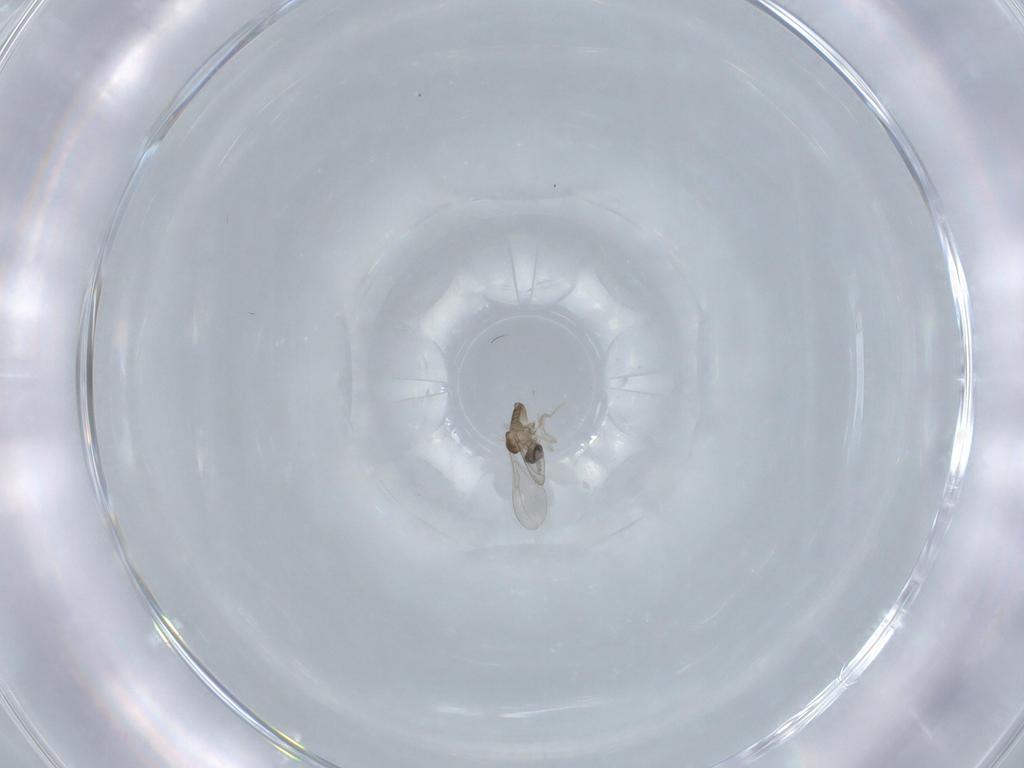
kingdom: Animalia
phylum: Arthropoda
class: Insecta
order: Diptera
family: Cecidomyiidae
